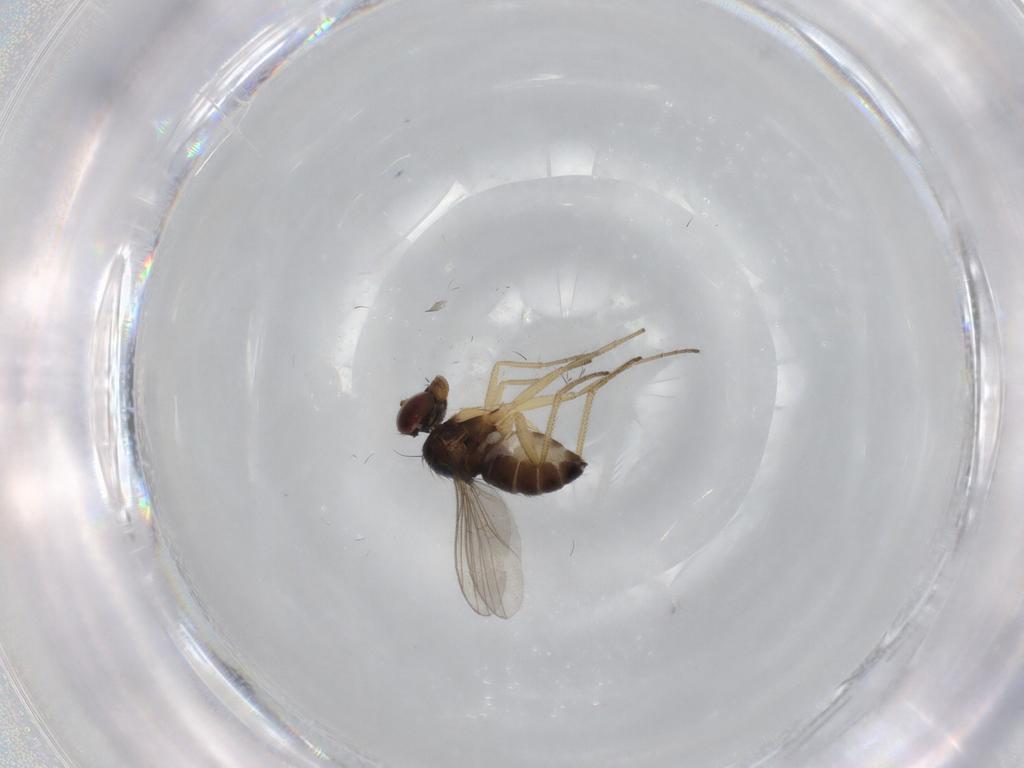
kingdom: Animalia
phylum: Arthropoda
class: Insecta
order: Diptera
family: Dolichopodidae
